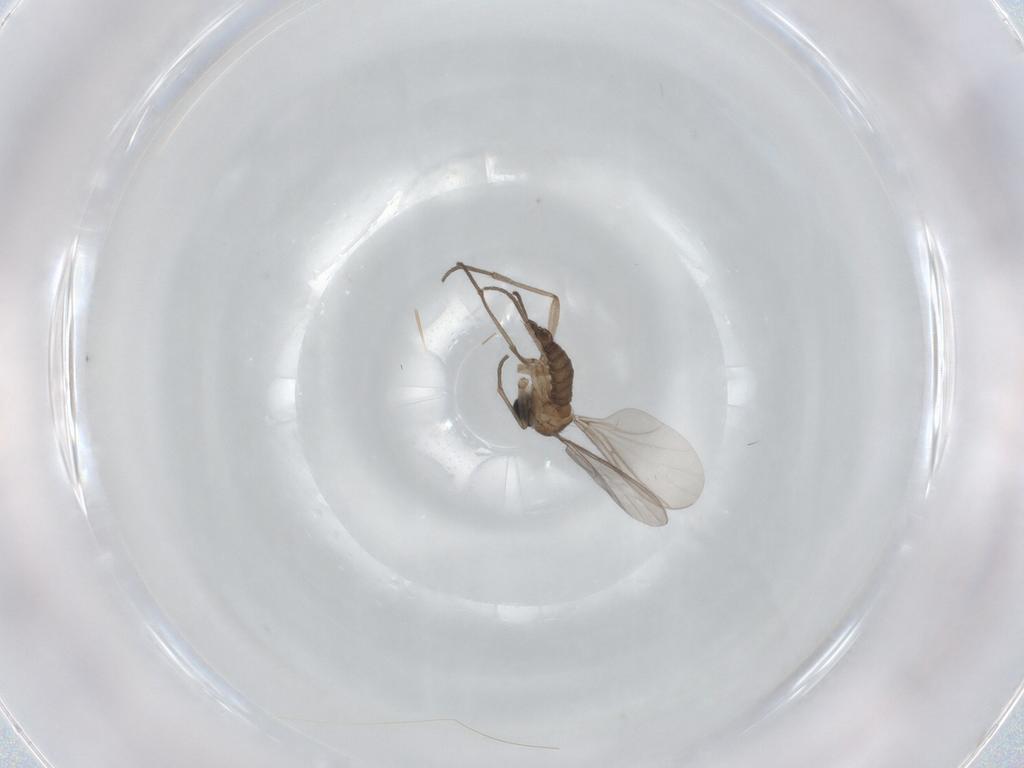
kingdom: Animalia
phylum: Arthropoda
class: Insecta
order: Diptera
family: Sciaridae
